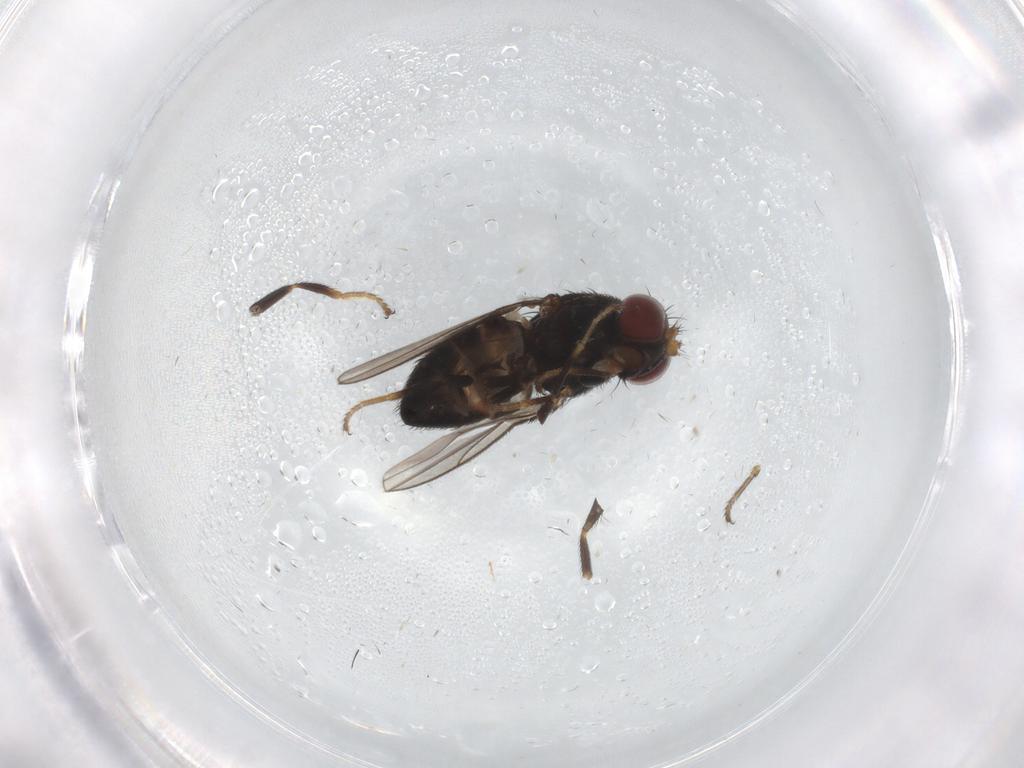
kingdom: Animalia
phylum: Arthropoda
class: Insecta
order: Diptera
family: Ephydridae
